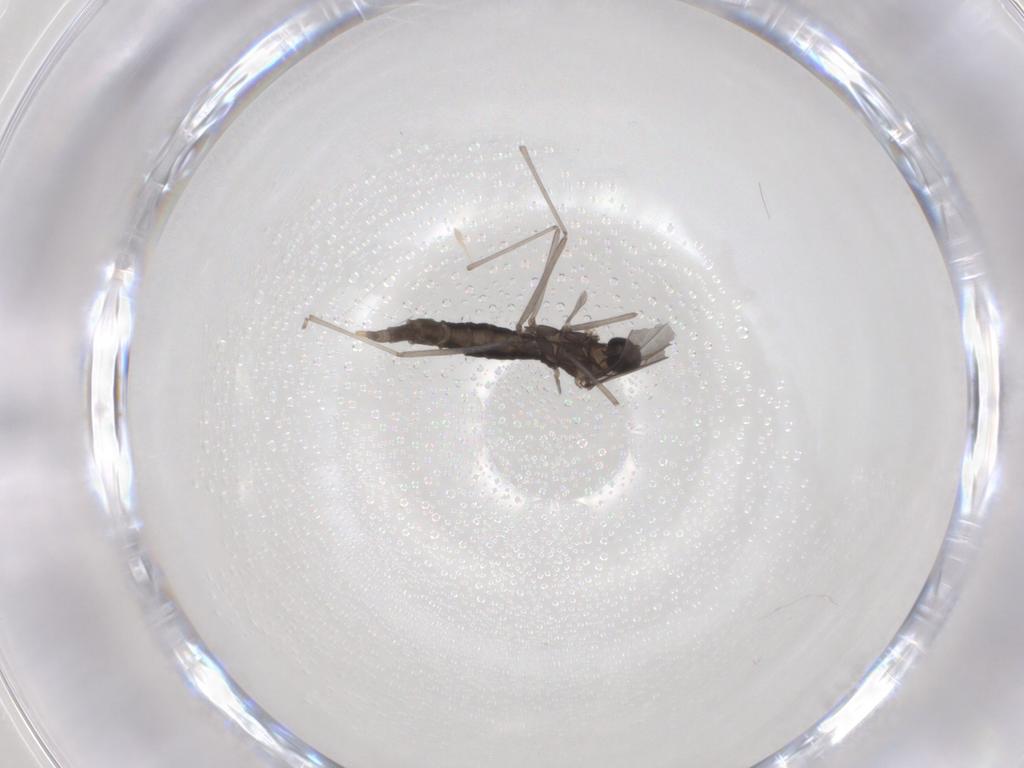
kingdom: Animalia
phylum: Arthropoda
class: Insecta
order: Diptera
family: Cecidomyiidae
